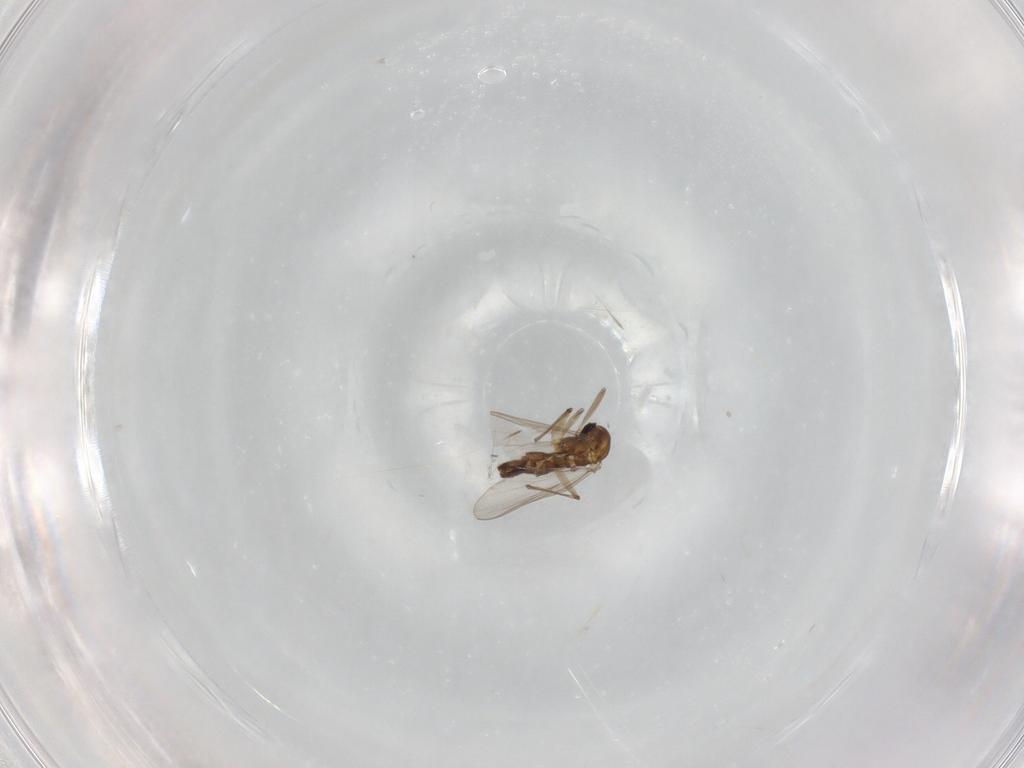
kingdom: Animalia
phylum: Arthropoda
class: Insecta
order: Diptera
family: Chironomidae
